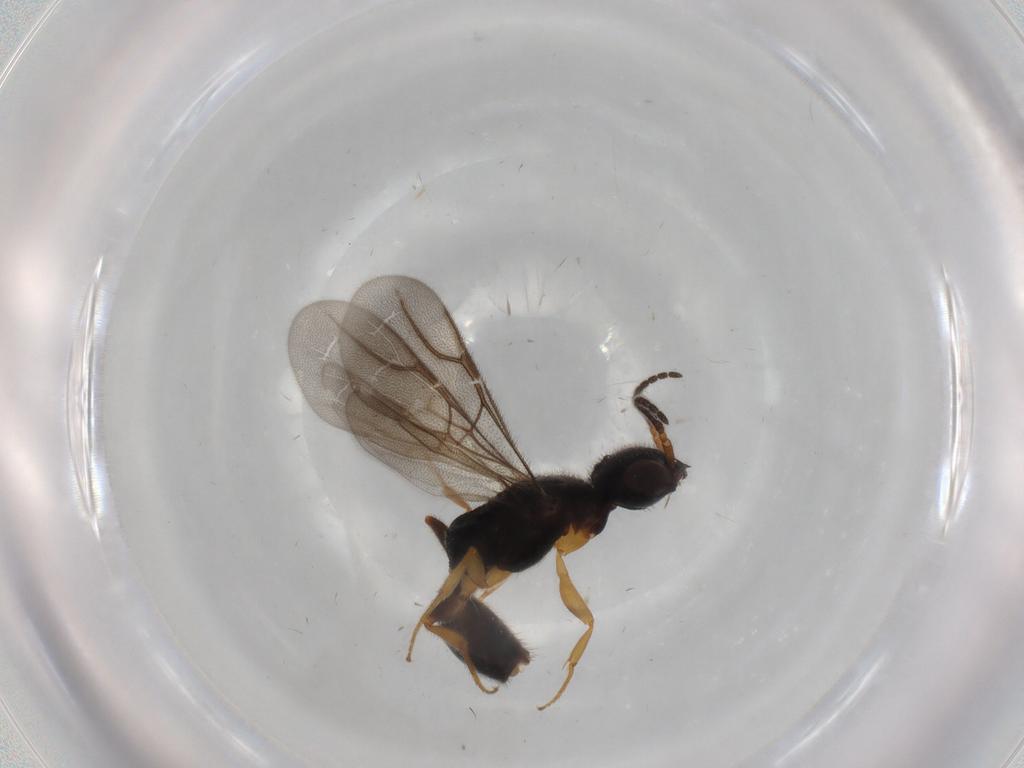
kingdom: Animalia
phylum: Arthropoda
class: Insecta
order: Hymenoptera
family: Bethylidae
